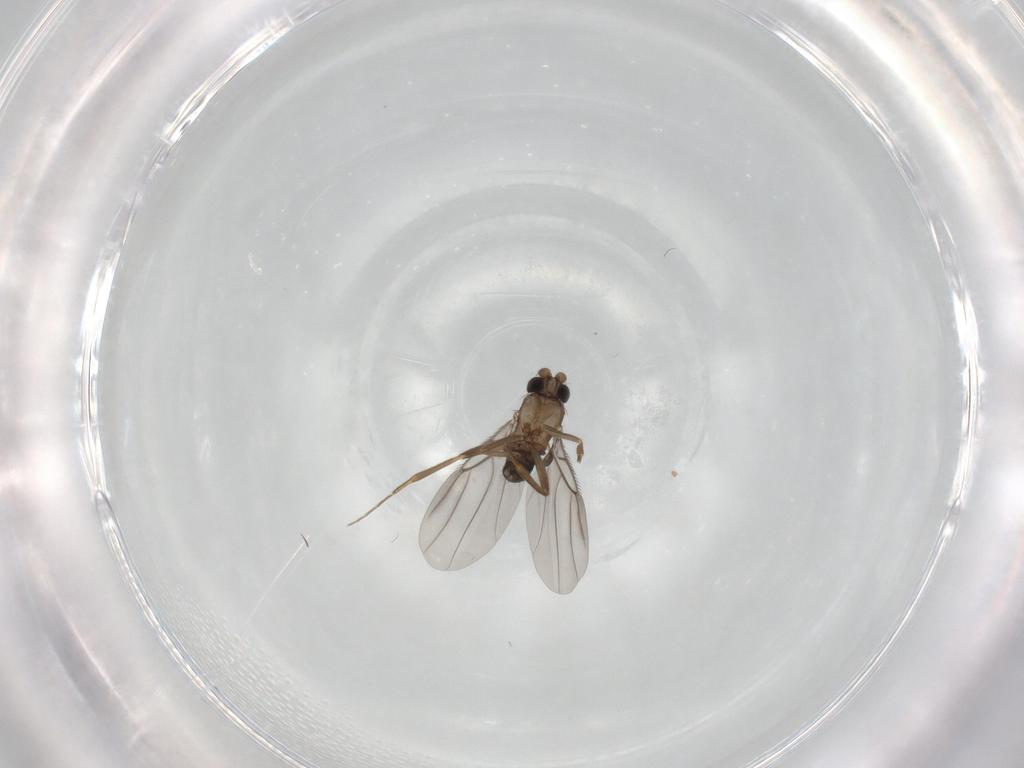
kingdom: Animalia
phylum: Arthropoda
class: Insecta
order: Diptera
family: Phoridae
